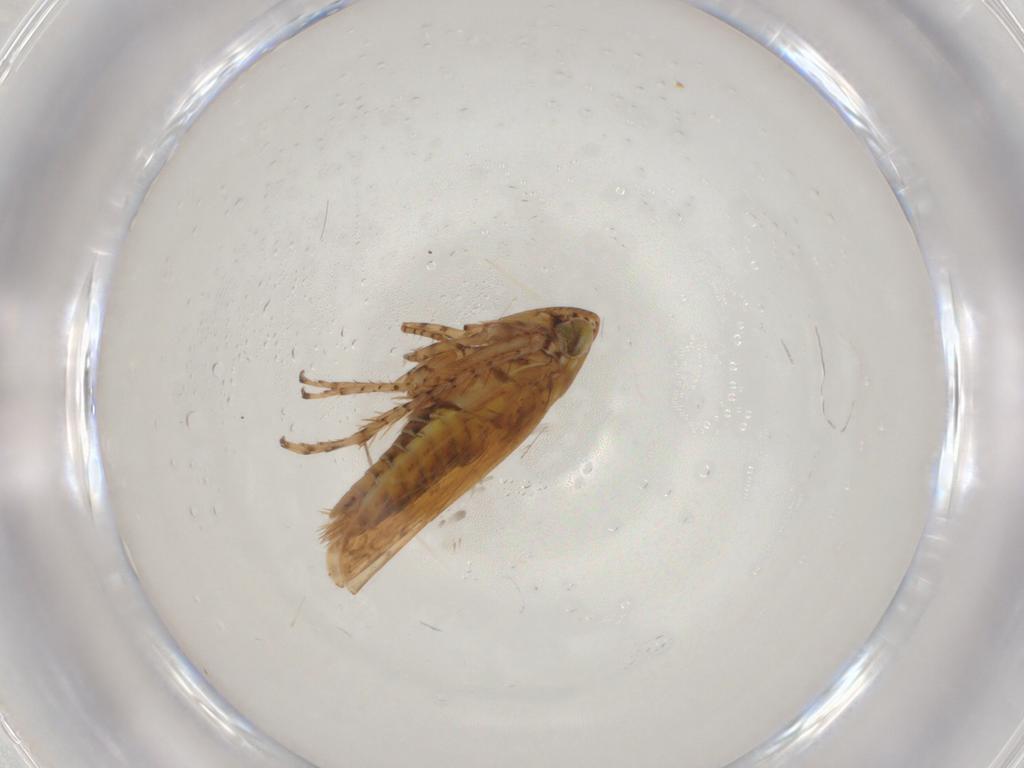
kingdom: Animalia
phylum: Arthropoda
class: Insecta
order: Hemiptera
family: Cicadellidae
